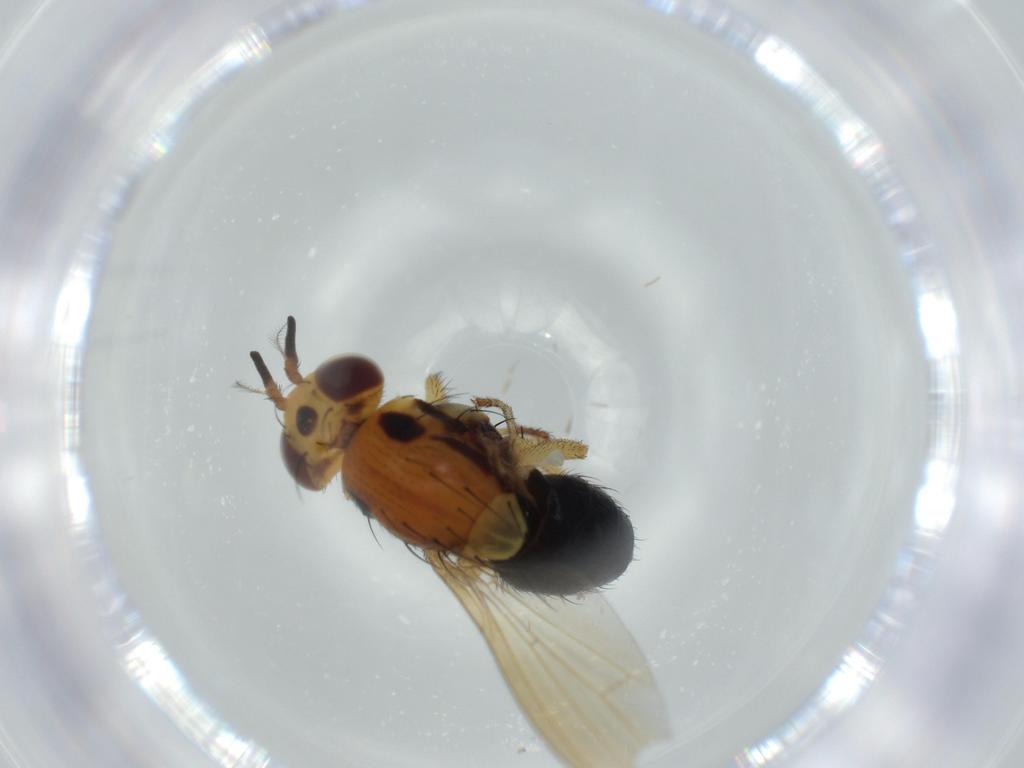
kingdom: Animalia
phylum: Arthropoda
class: Insecta
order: Diptera
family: Lauxaniidae
